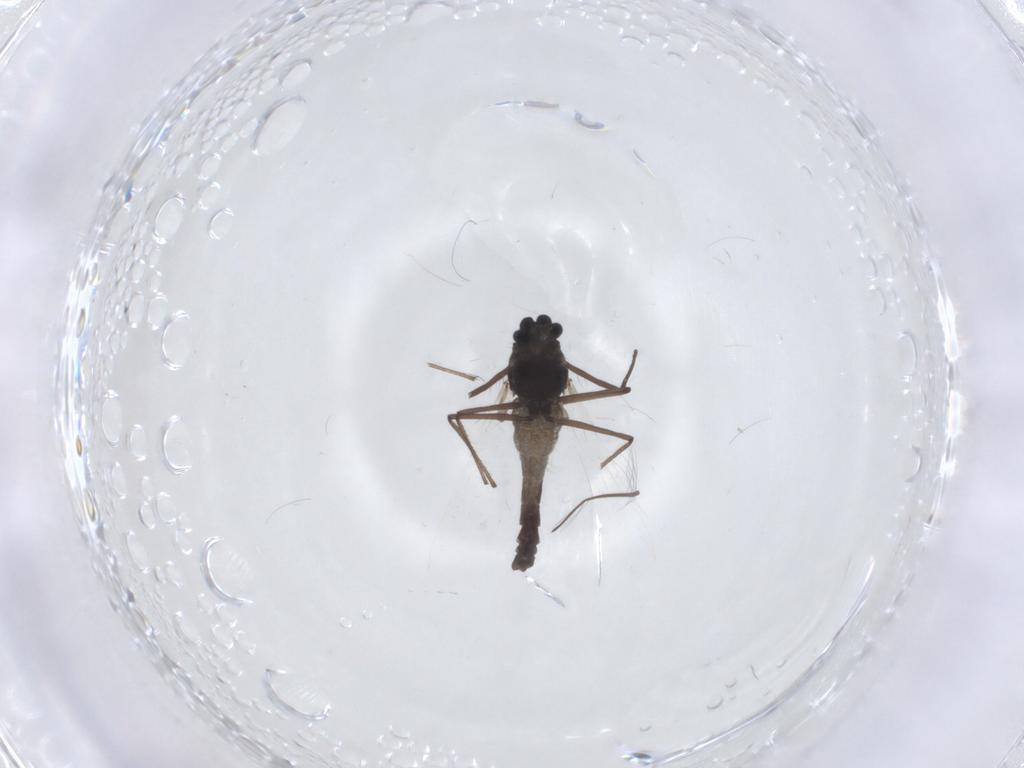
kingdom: Animalia
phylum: Arthropoda
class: Insecta
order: Diptera
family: Chironomidae
